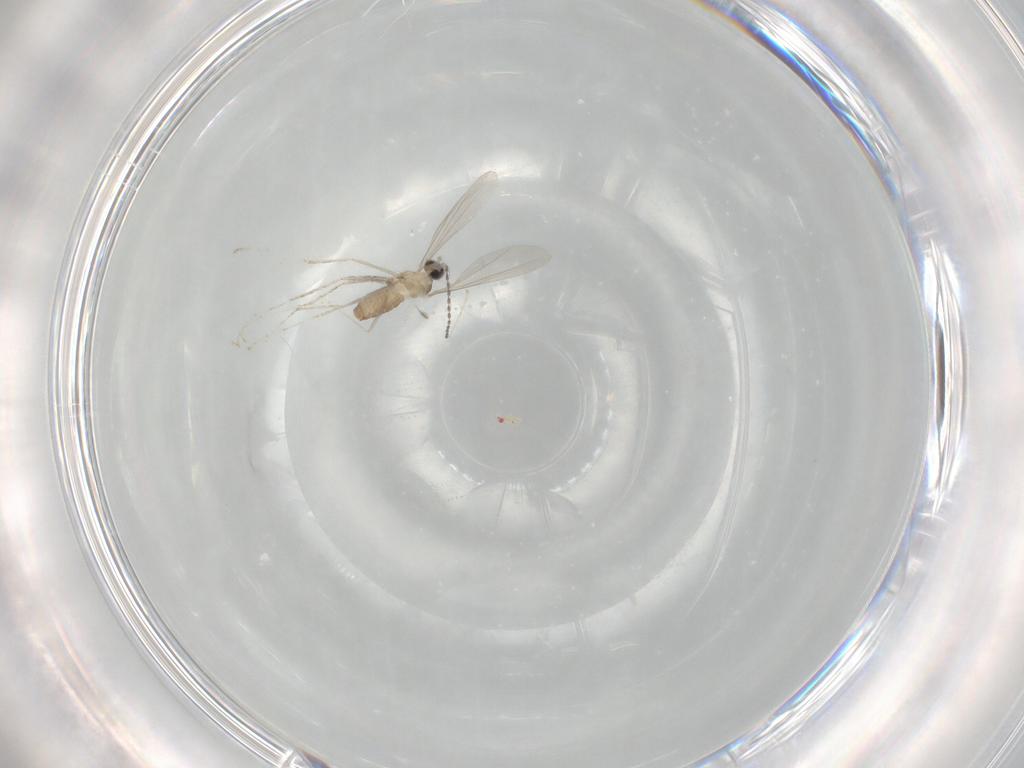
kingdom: Animalia
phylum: Arthropoda
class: Insecta
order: Diptera
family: Cecidomyiidae
